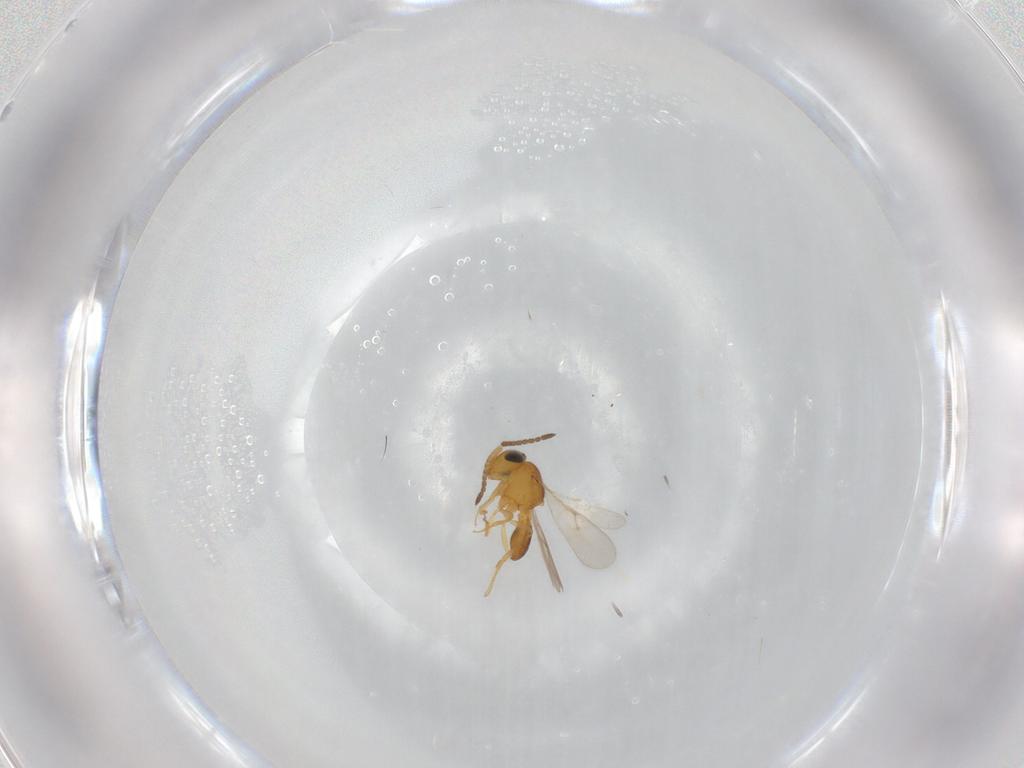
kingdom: Animalia
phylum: Arthropoda
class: Insecta
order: Hymenoptera
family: Scelionidae
